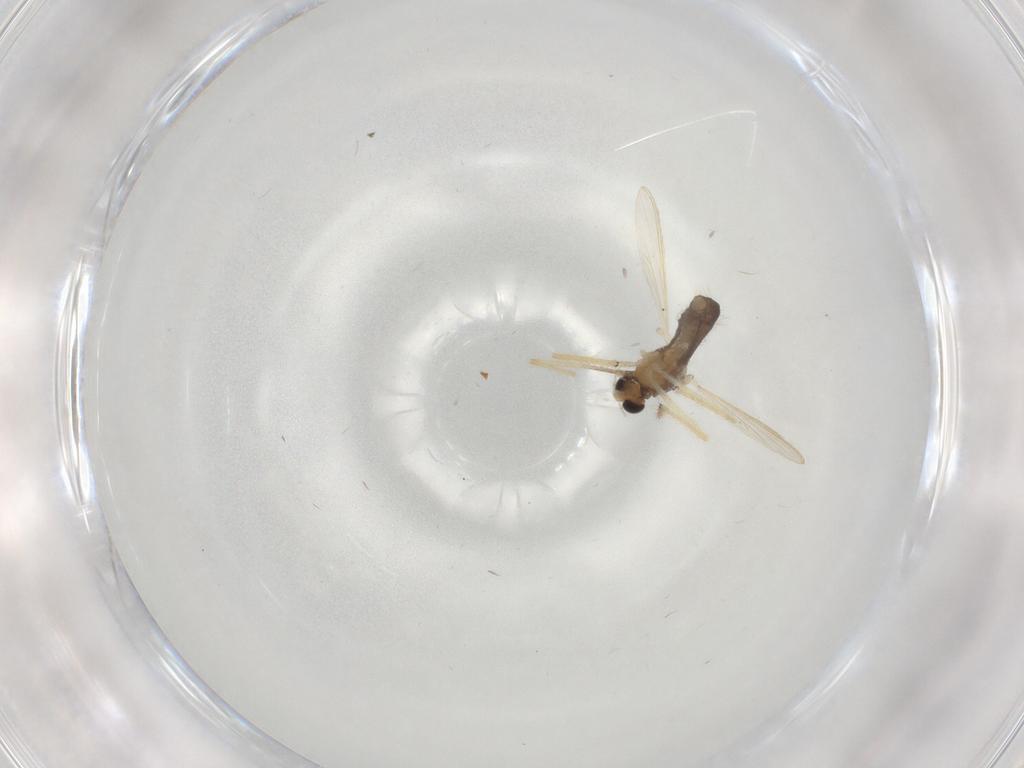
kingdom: Animalia
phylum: Arthropoda
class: Insecta
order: Diptera
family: Chironomidae
